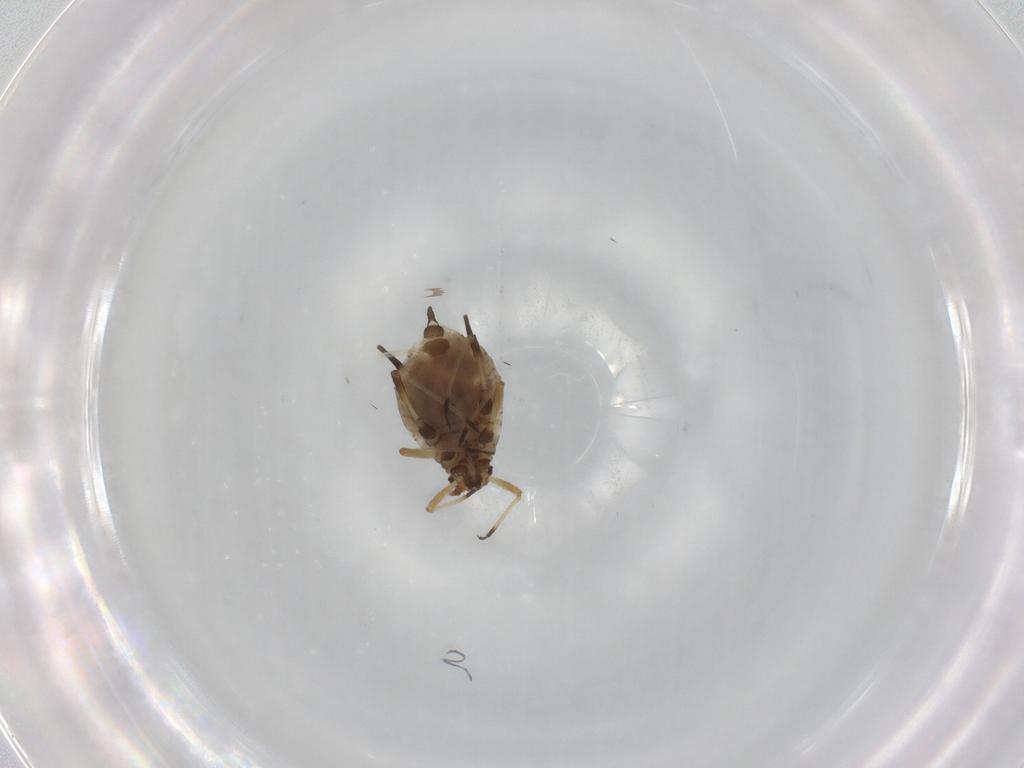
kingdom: Animalia
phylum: Arthropoda
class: Insecta
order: Hemiptera
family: Aphididae
